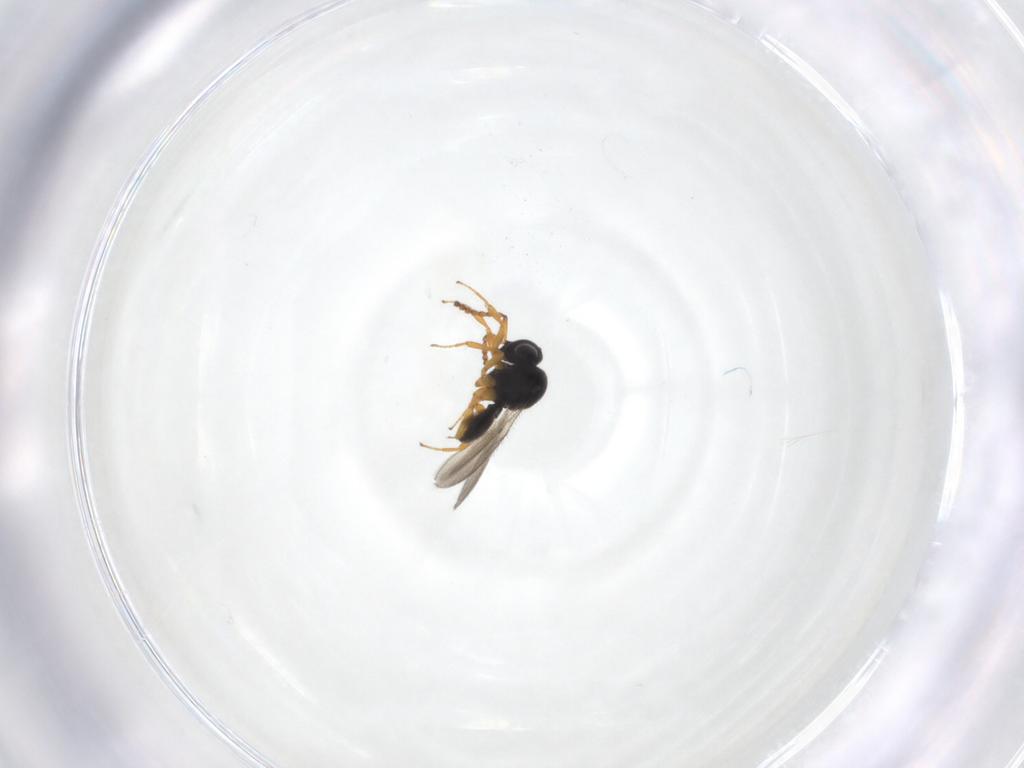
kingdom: Animalia
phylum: Arthropoda
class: Insecta
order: Hymenoptera
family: Scelionidae
